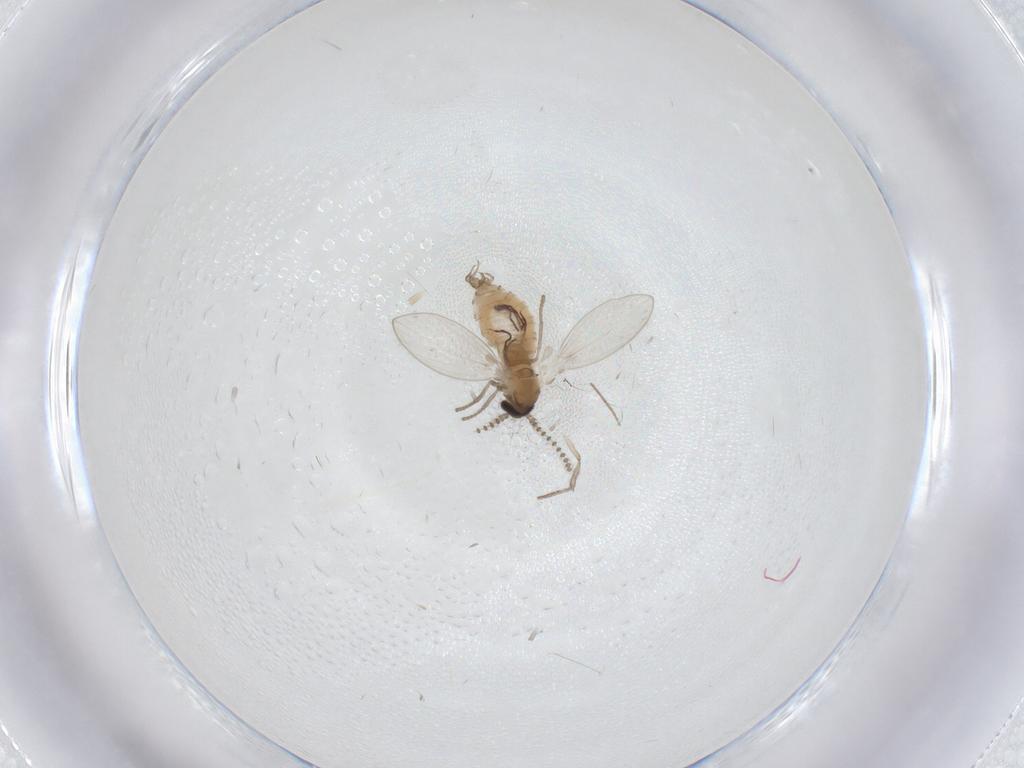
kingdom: Animalia
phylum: Arthropoda
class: Insecta
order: Diptera
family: Psychodidae
